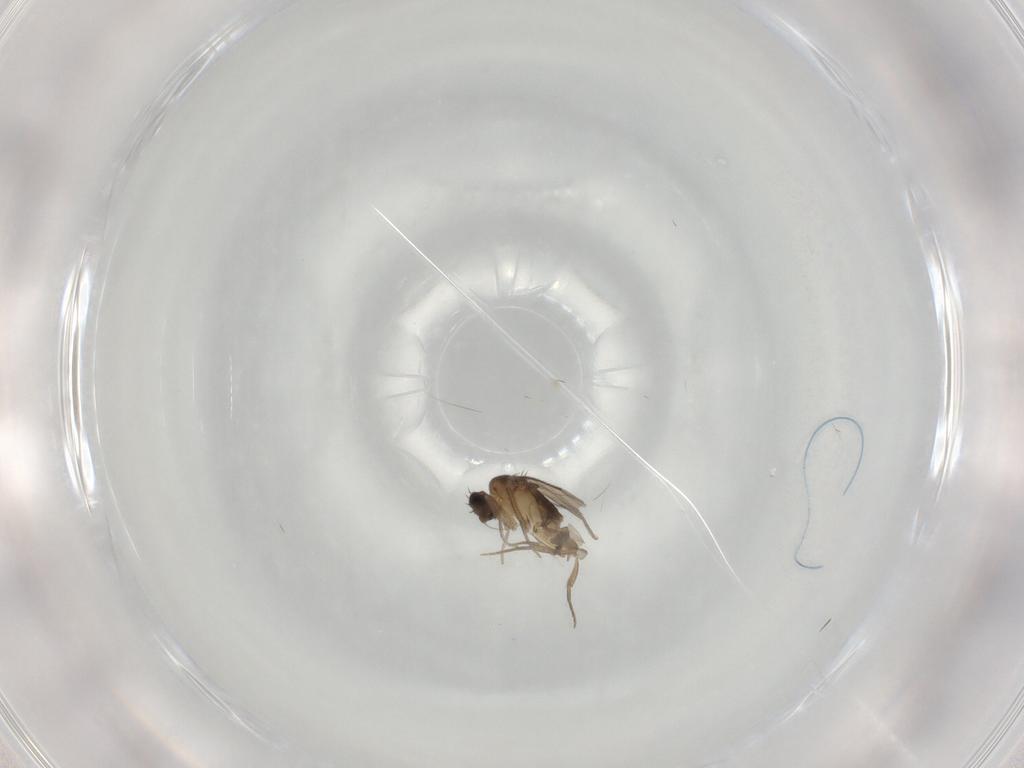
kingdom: Animalia
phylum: Arthropoda
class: Insecta
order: Diptera
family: Phoridae
